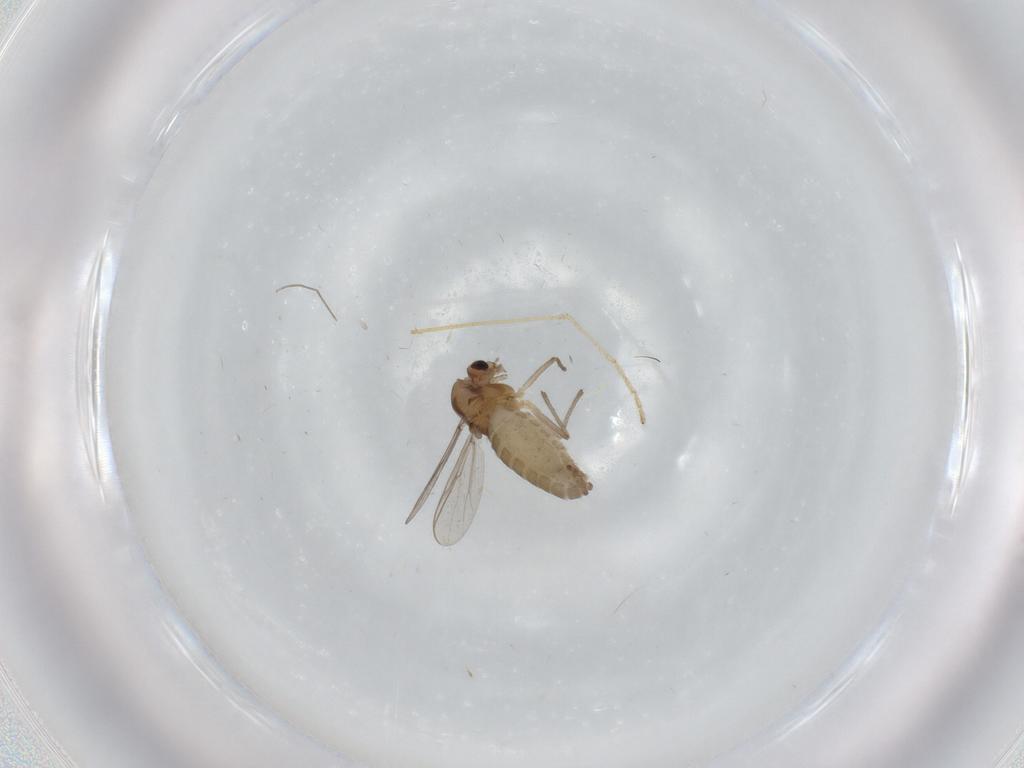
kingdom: Animalia
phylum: Arthropoda
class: Insecta
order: Diptera
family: Chironomidae
